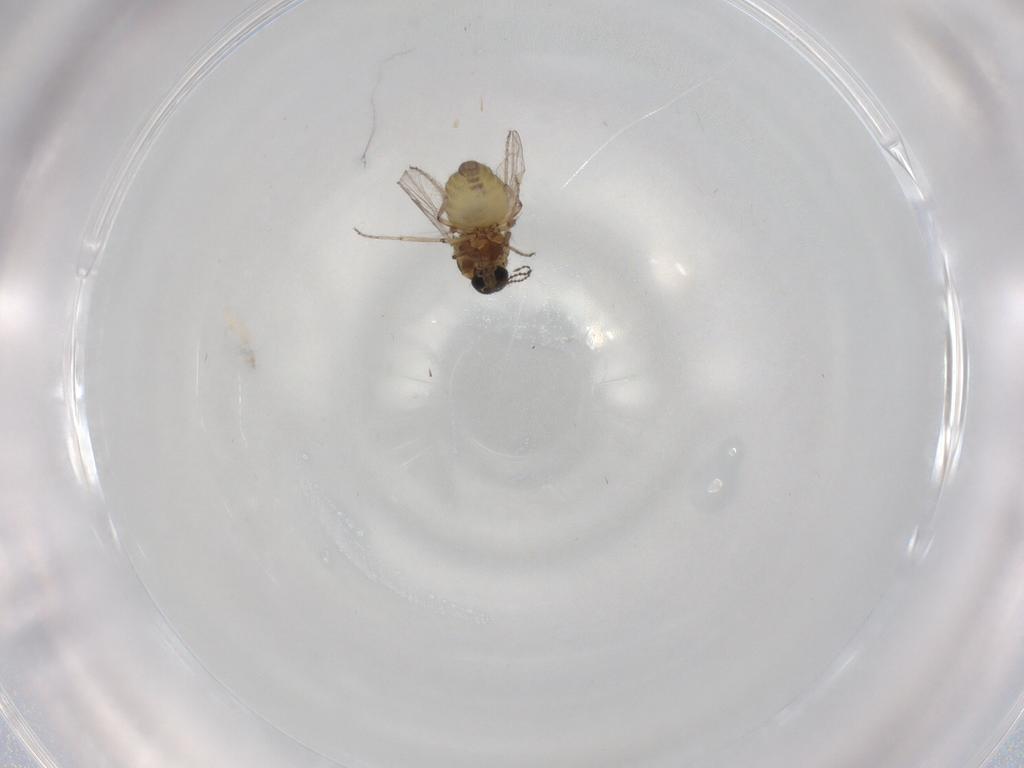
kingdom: Animalia
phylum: Arthropoda
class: Insecta
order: Diptera
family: Ceratopogonidae
